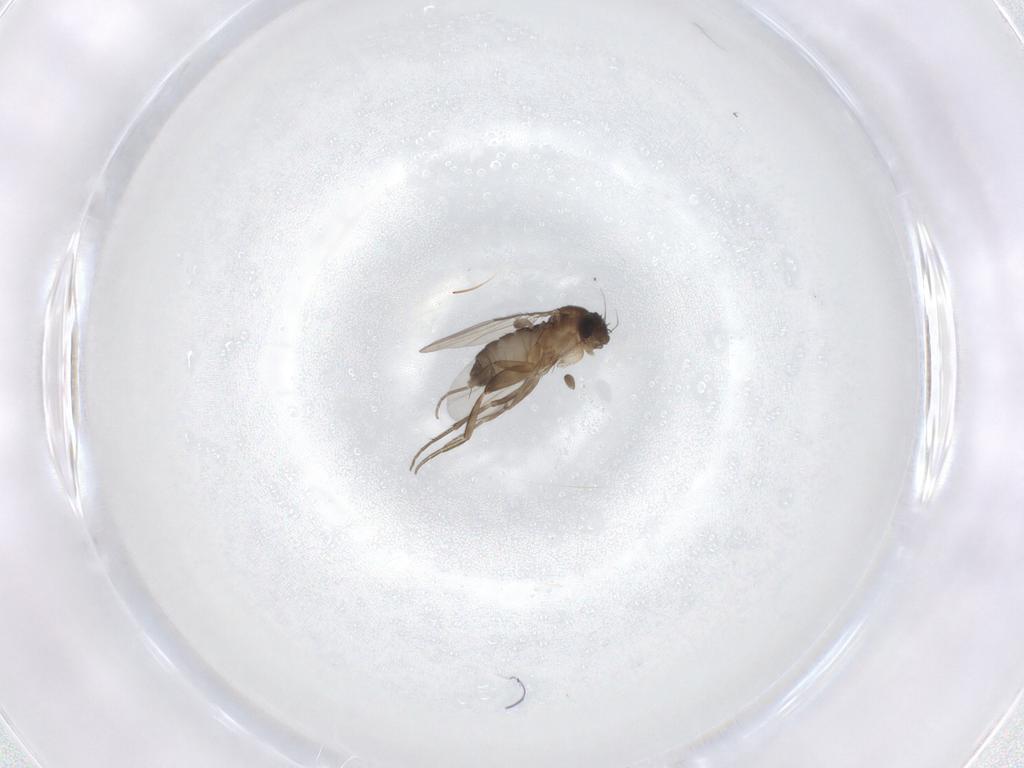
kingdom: Animalia
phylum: Arthropoda
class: Insecta
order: Diptera
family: Phoridae
